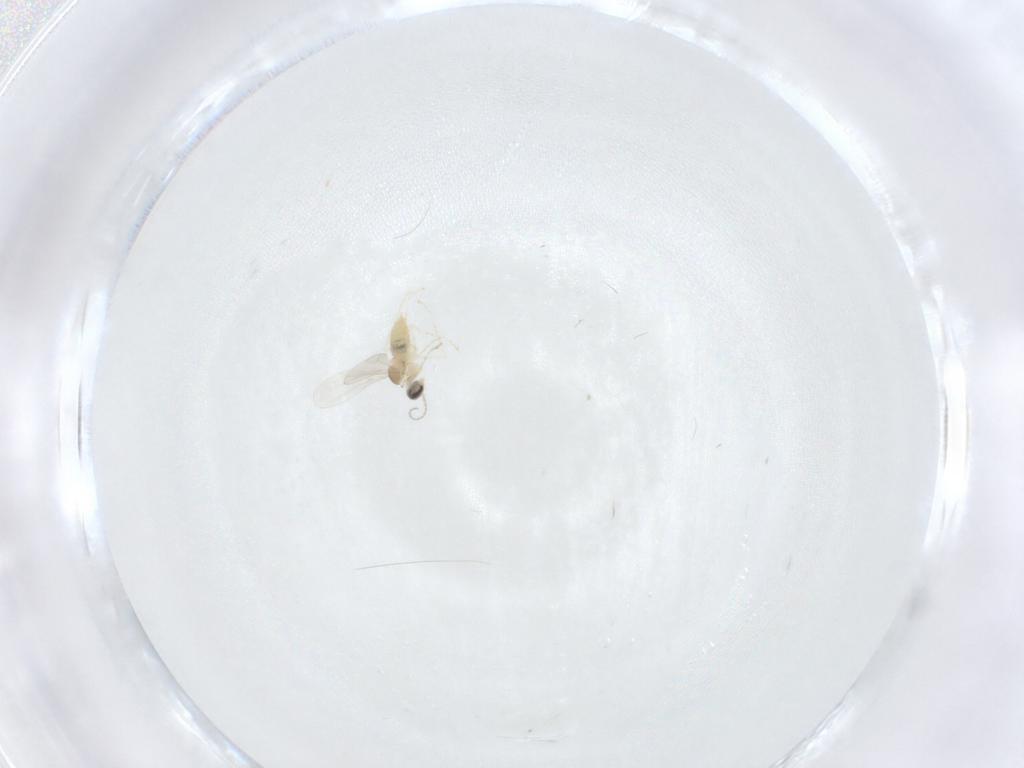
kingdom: Animalia
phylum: Arthropoda
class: Insecta
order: Diptera
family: Cecidomyiidae
